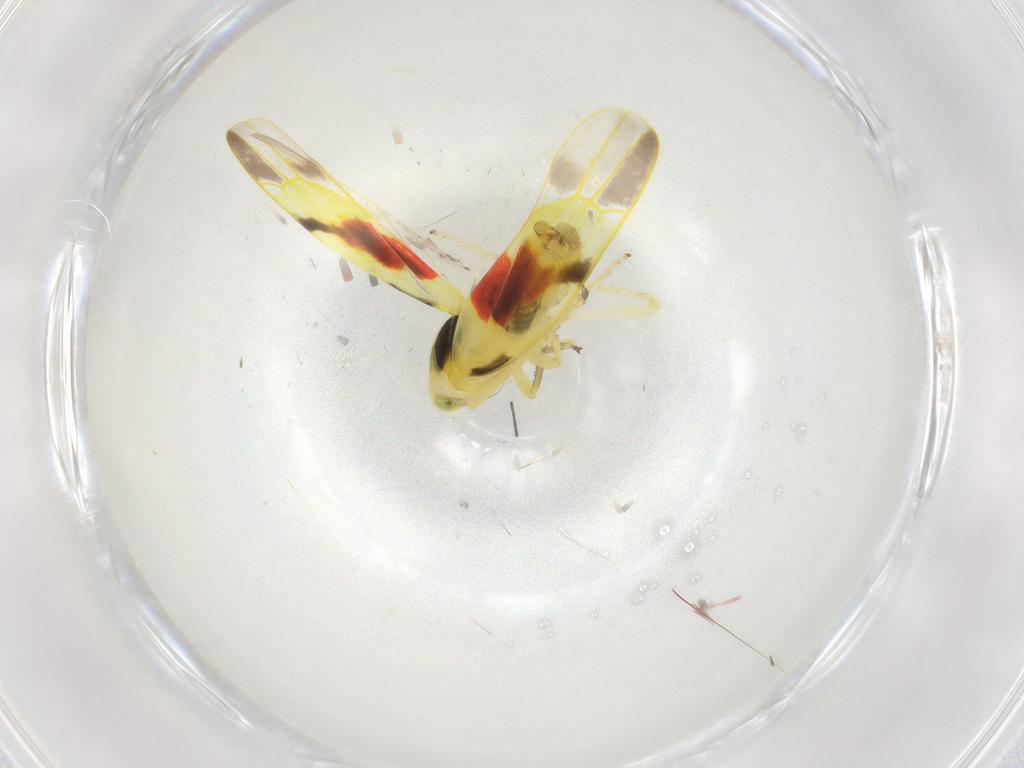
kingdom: Animalia
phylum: Arthropoda
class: Insecta
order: Hemiptera
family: Cicadellidae
